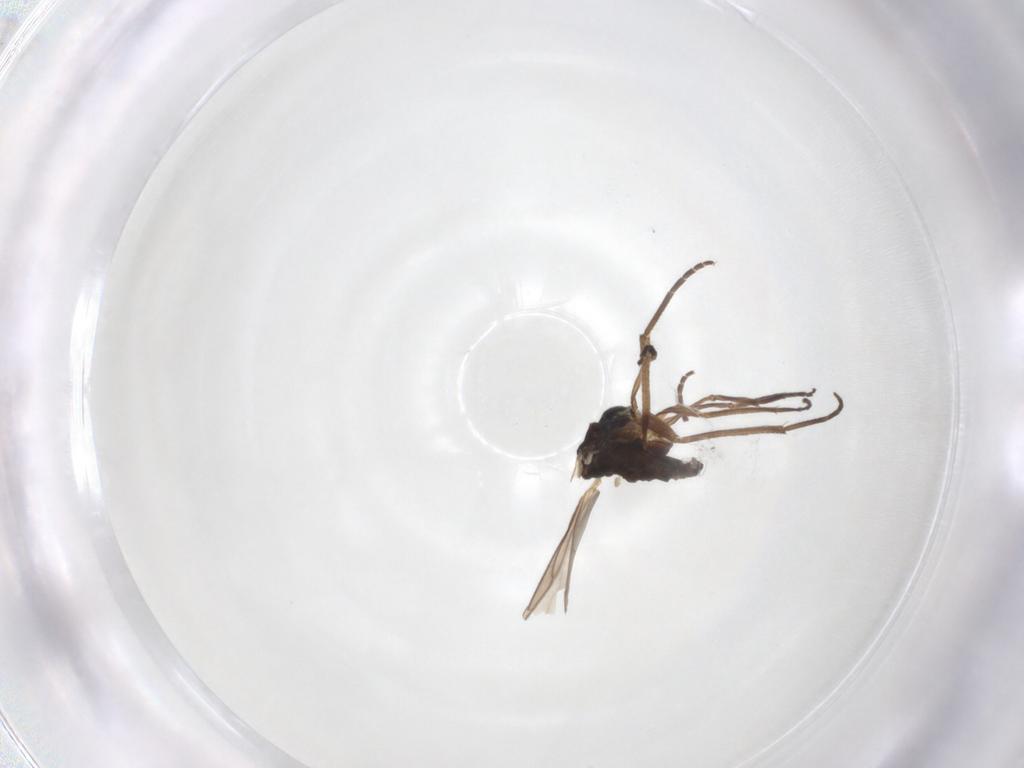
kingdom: Animalia
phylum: Arthropoda
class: Insecta
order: Diptera
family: Sciaridae
